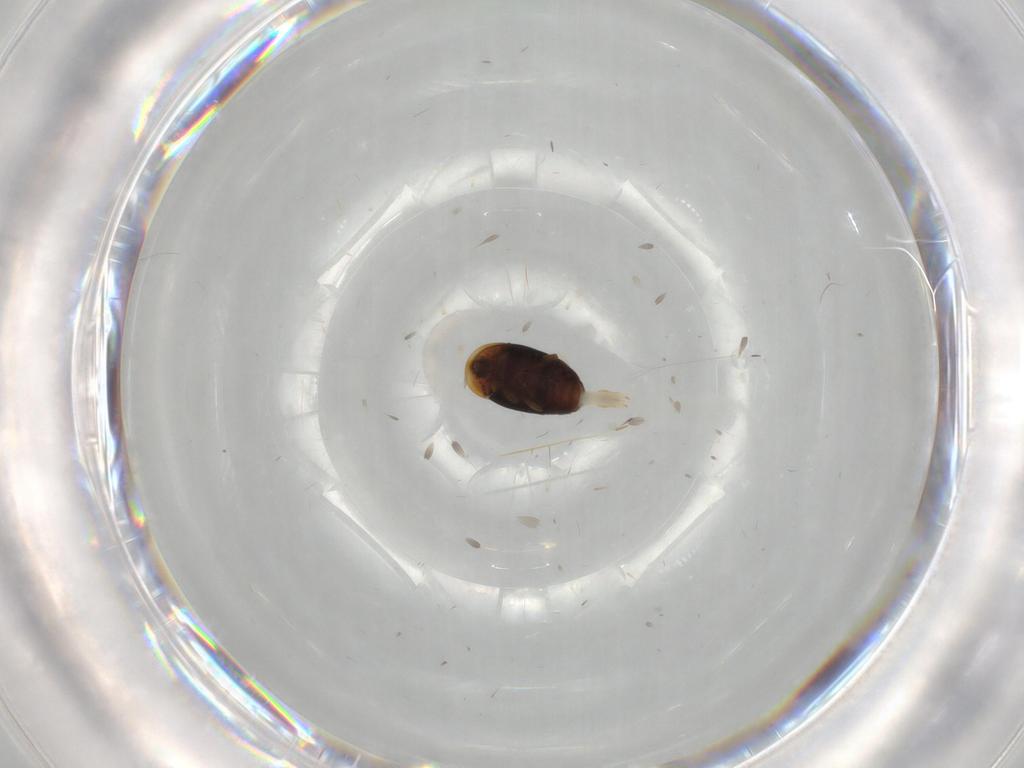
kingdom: Animalia
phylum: Arthropoda
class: Insecta
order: Coleoptera
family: Corylophidae
